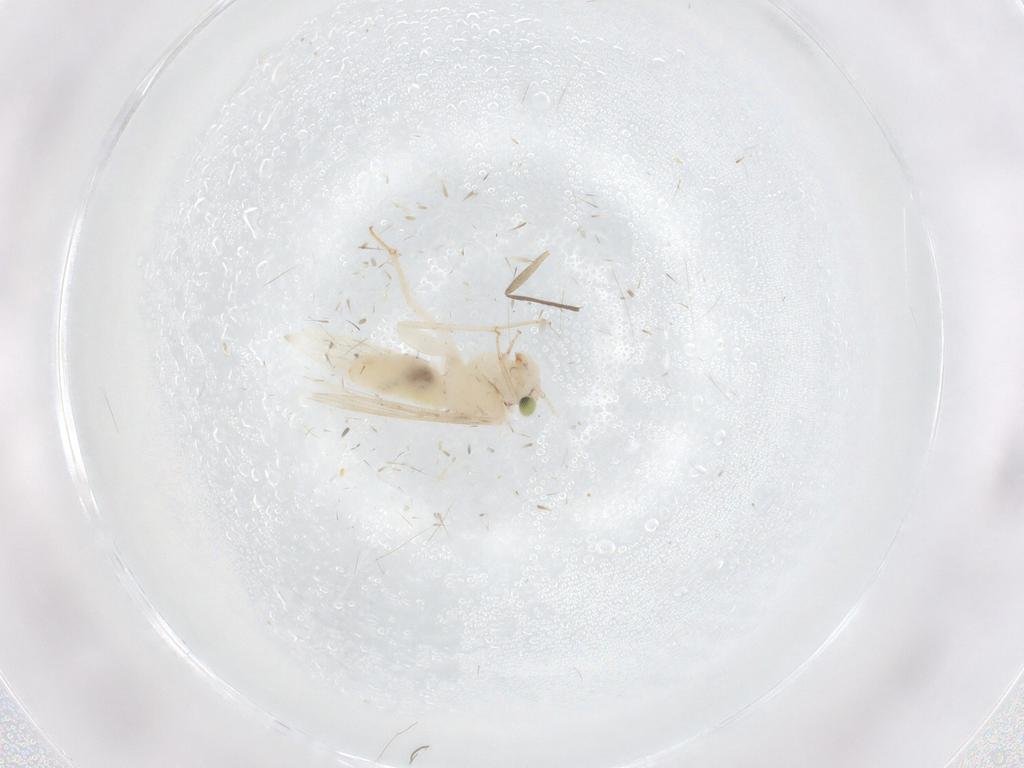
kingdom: Animalia
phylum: Arthropoda
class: Insecta
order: Psocodea
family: Lepidopsocidae
